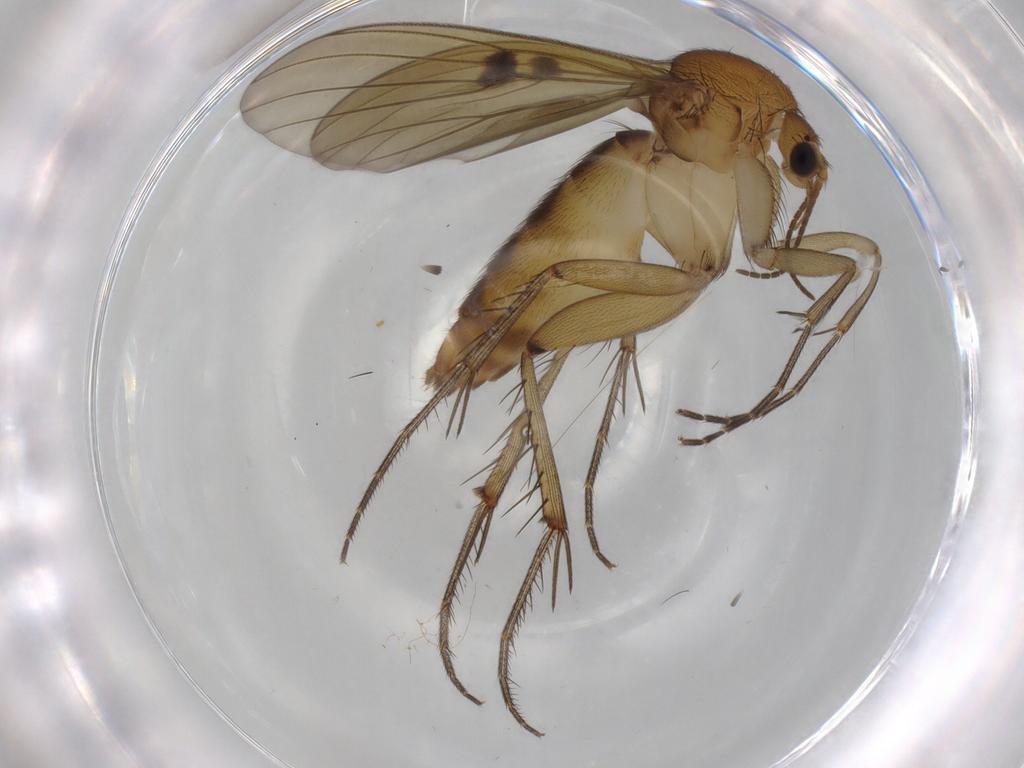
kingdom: Animalia
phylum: Arthropoda
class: Insecta
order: Diptera
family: Mycetophilidae
